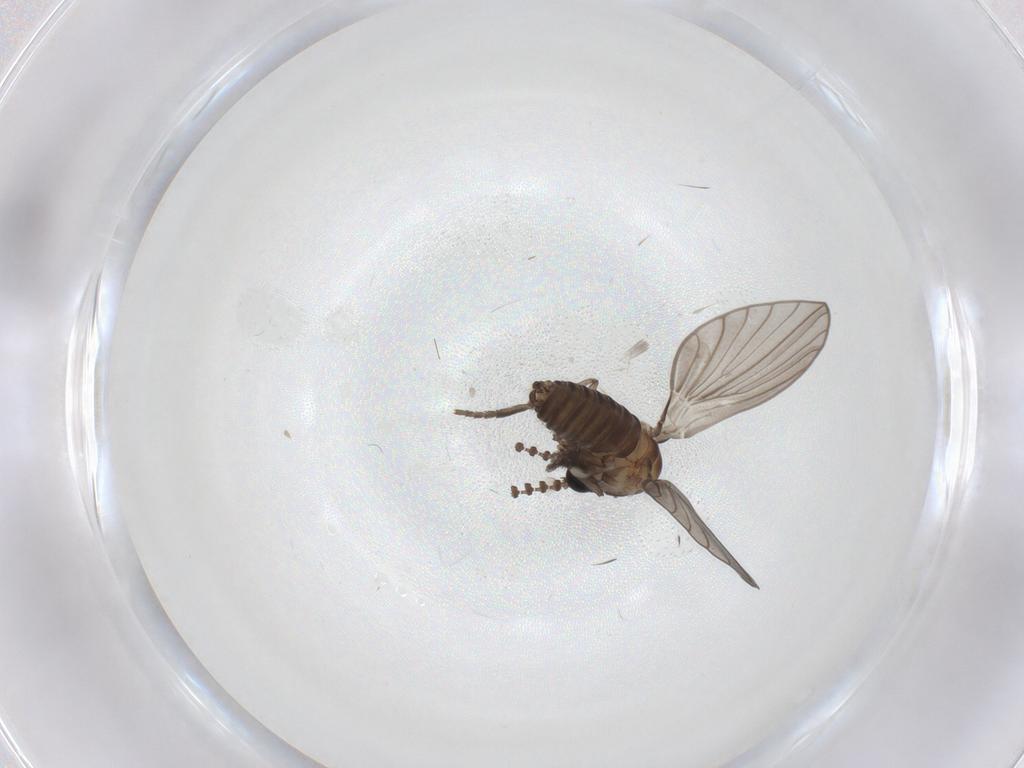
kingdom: Animalia
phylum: Arthropoda
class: Insecta
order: Diptera
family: Psychodidae
